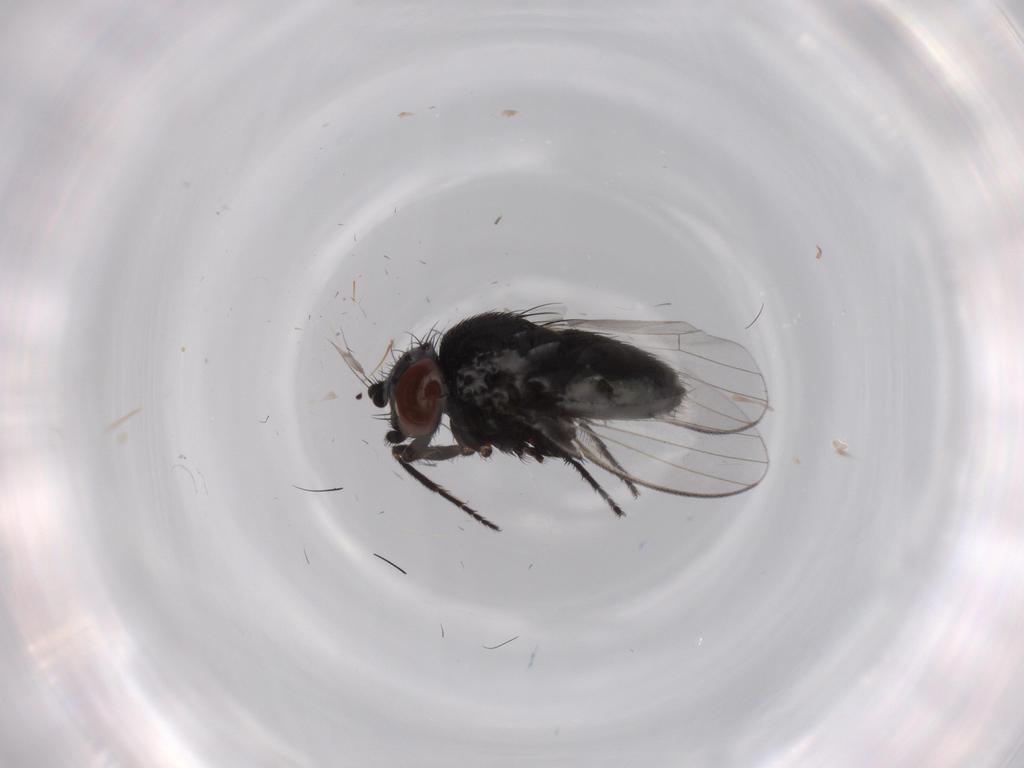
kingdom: Animalia
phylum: Arthropoda
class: Insecta
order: Diptera
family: Milichiidae
